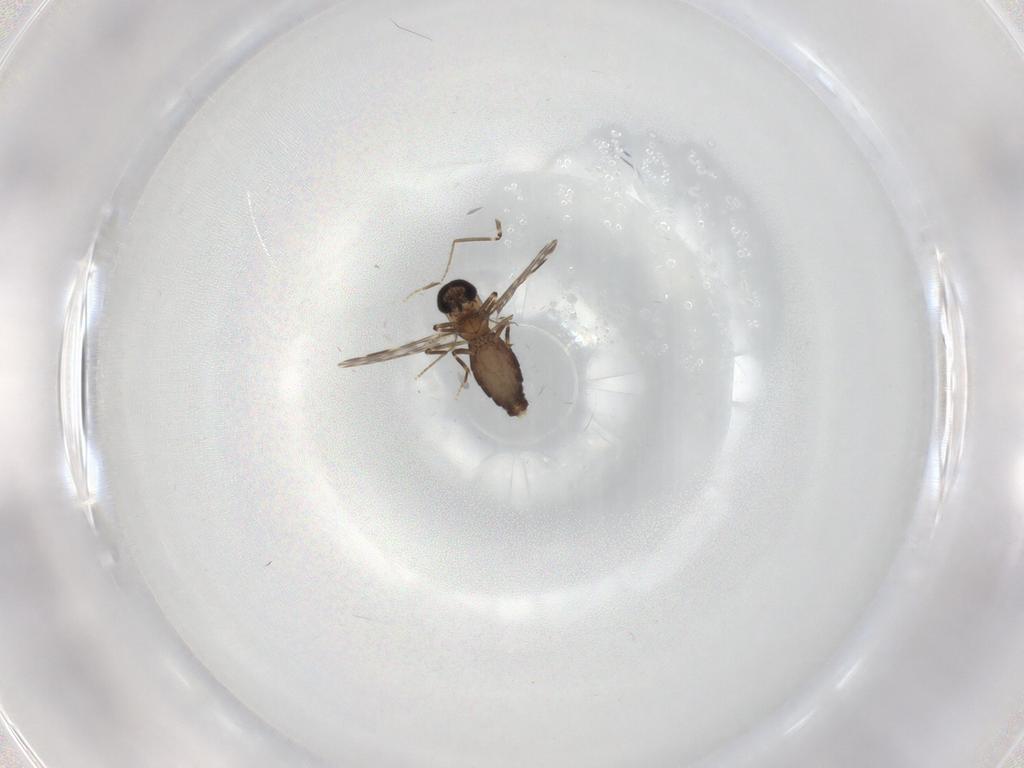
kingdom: Animalia
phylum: Arthropoda
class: Insecta
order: Diptera
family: Ceratopogonidae
